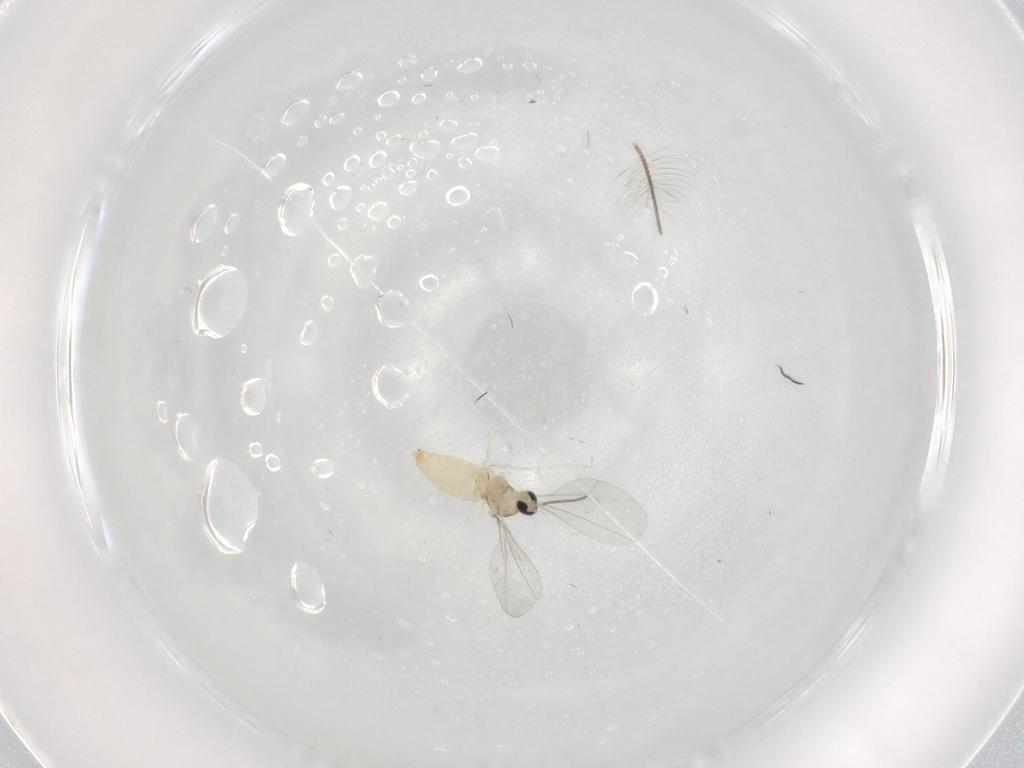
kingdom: Animalia
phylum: Arthropoda
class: Insecta
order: Diptera
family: Cecidomyiidae
